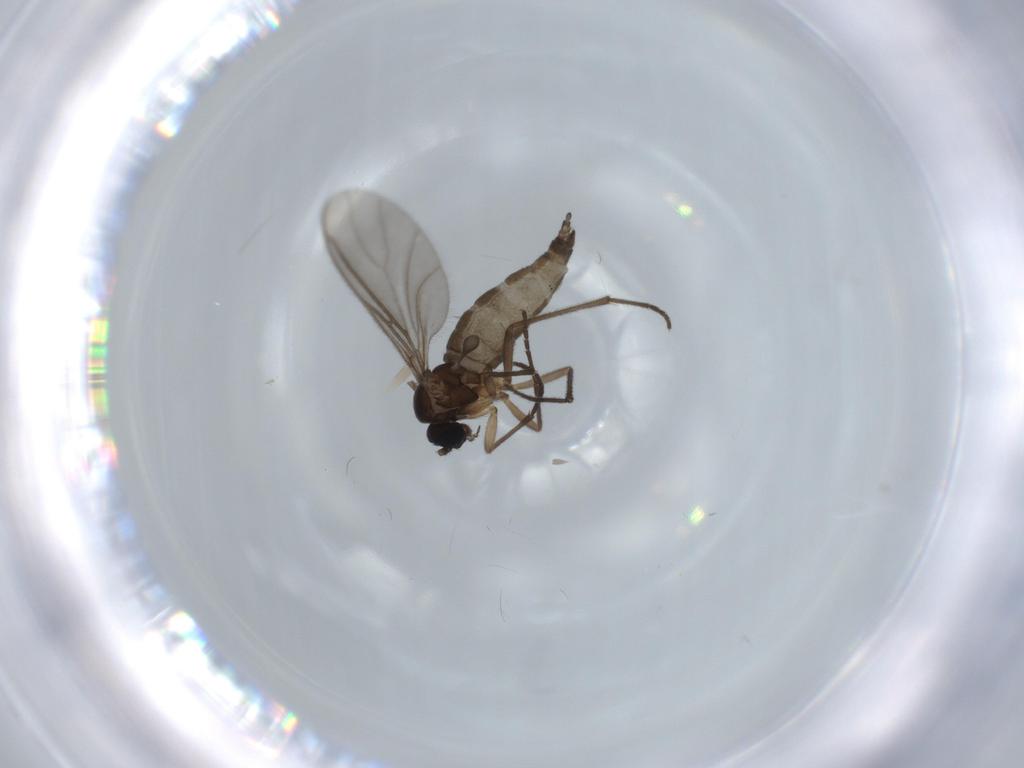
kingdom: Animalia
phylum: Arthropoda
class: Insecta
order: Diptera
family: Sciaridae
